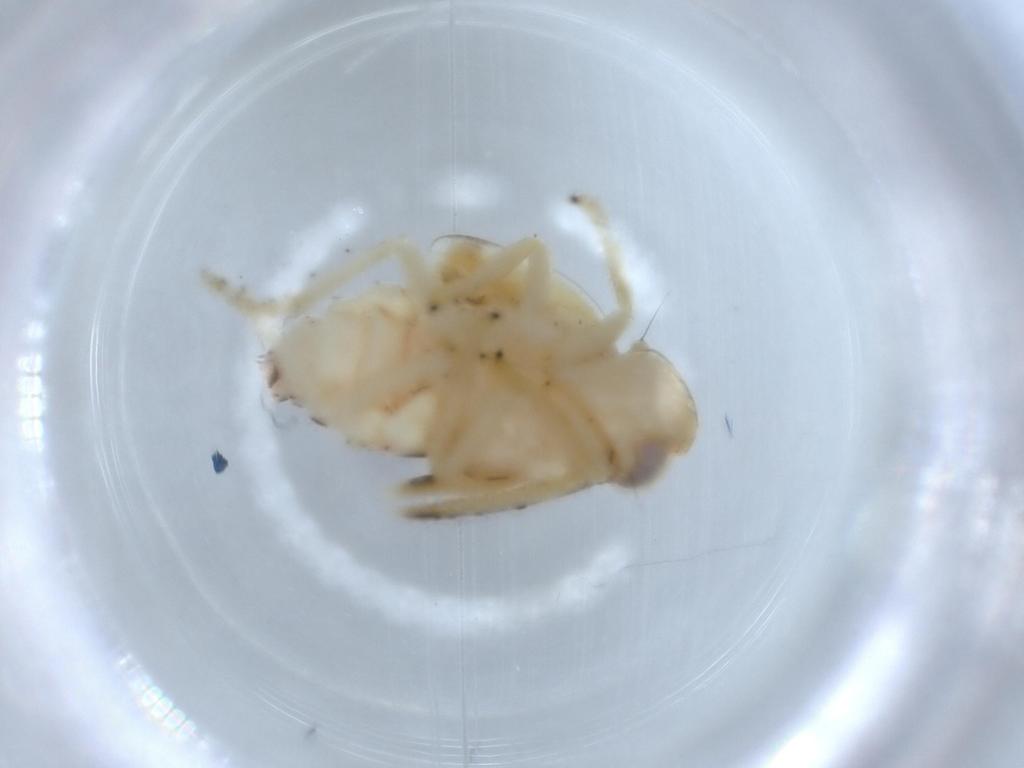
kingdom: Animalia
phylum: Arthropoda
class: Insecta
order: Hemiptera
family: Nogodinidae
